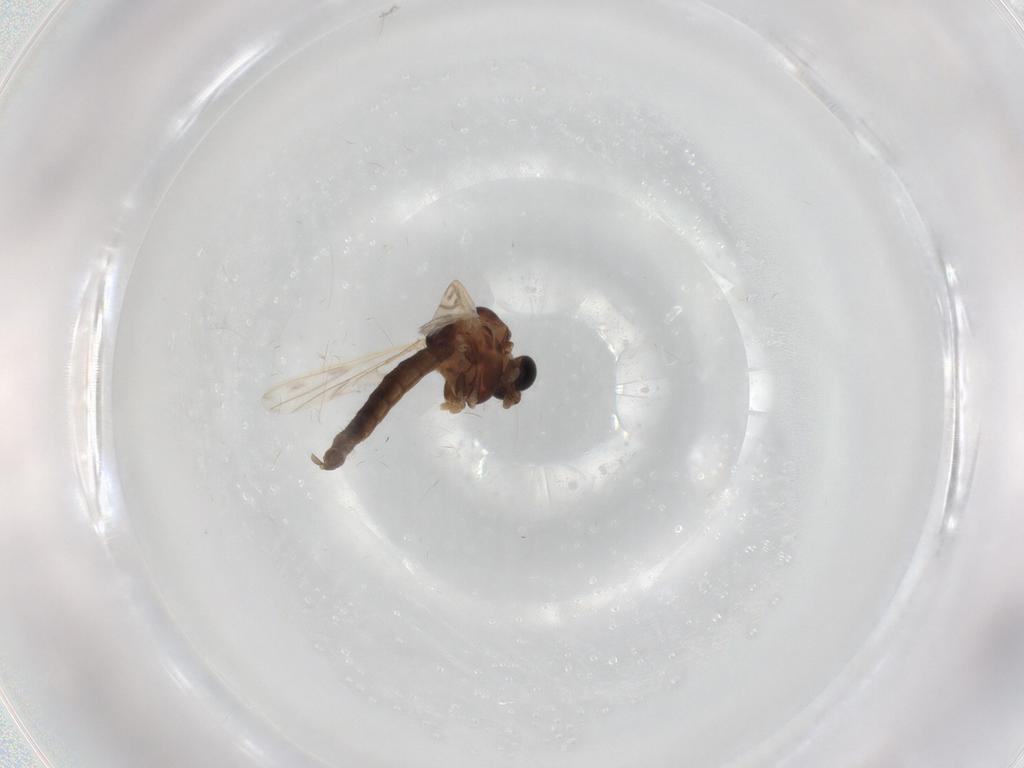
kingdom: Animalia
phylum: Arthropoda
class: Insecta
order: Diptera
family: Chironomidae
